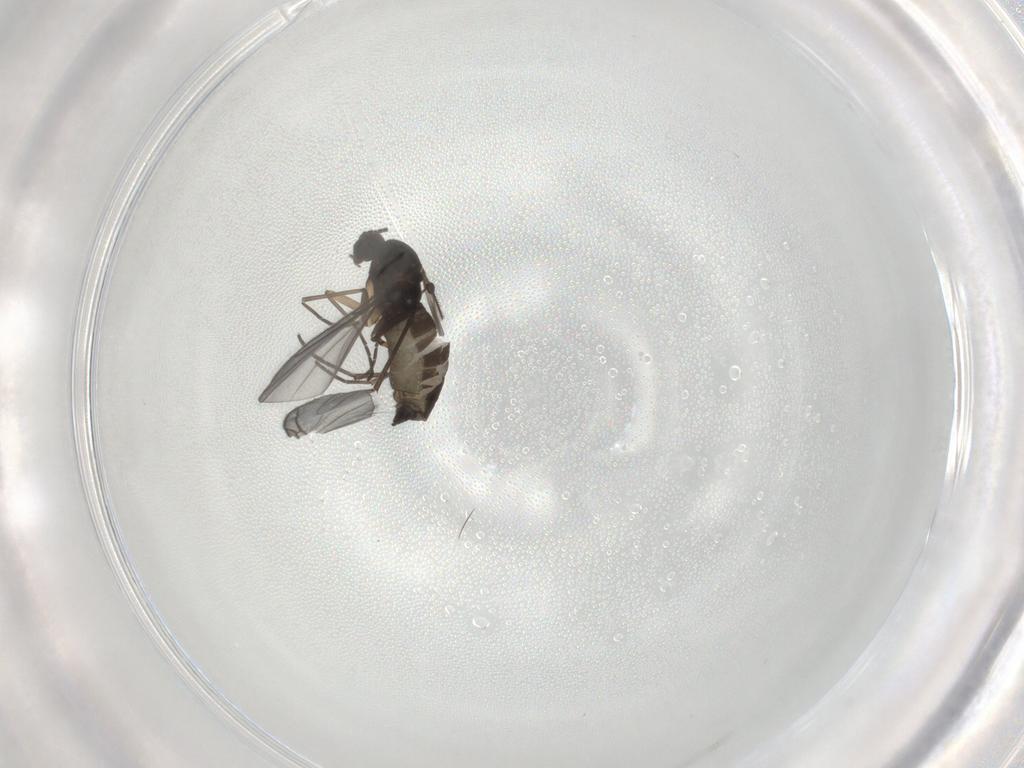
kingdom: Animalia
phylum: Arthropoda
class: Insecta
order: Diptera
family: Sciaridae
